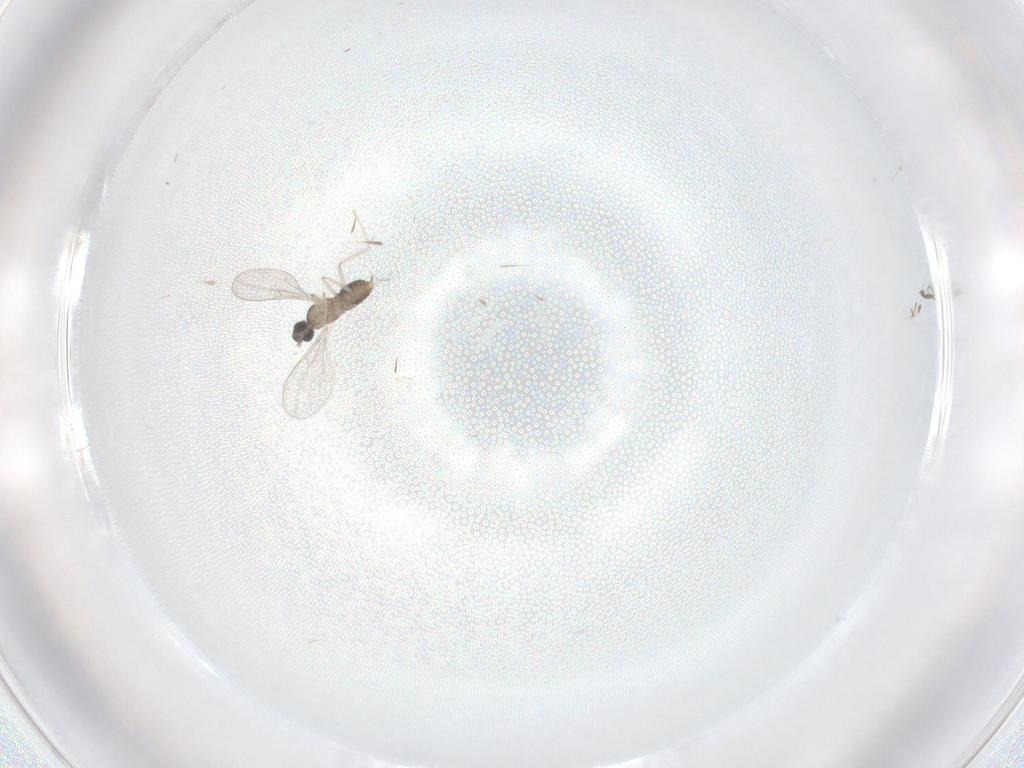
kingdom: Animalia
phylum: Arthropoda
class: Insecta
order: Diptera
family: Cecidomyiidae
